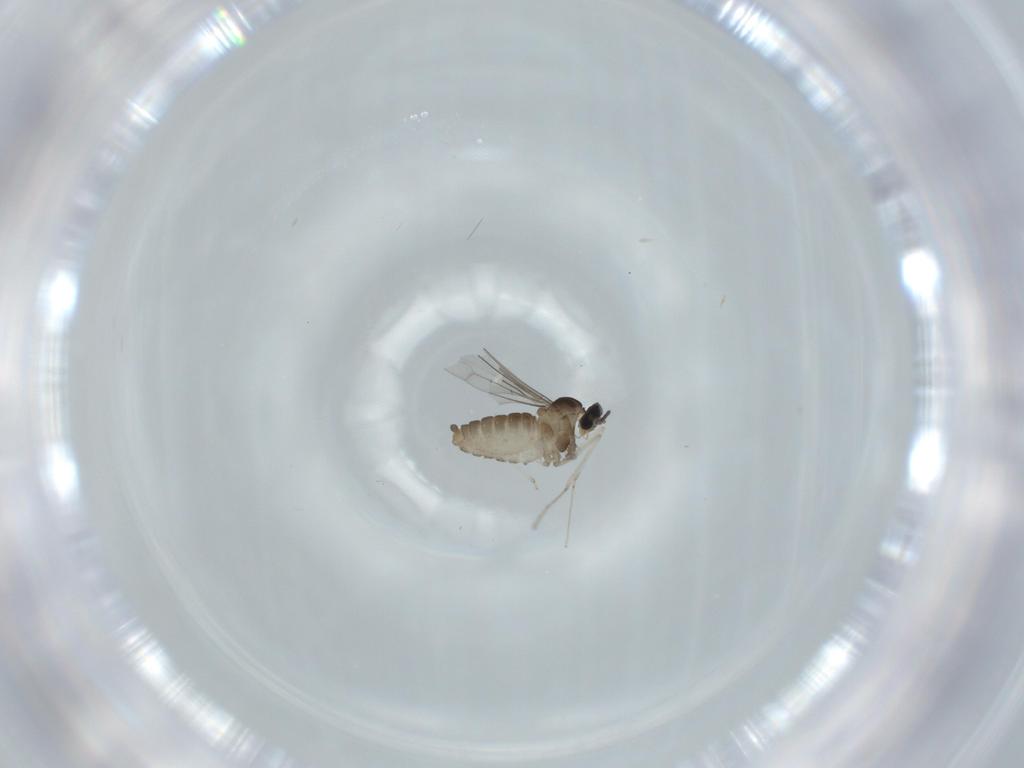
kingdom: Animalia
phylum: Arthropoda
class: Insecta
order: Diptera
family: Cecidomyiidae
